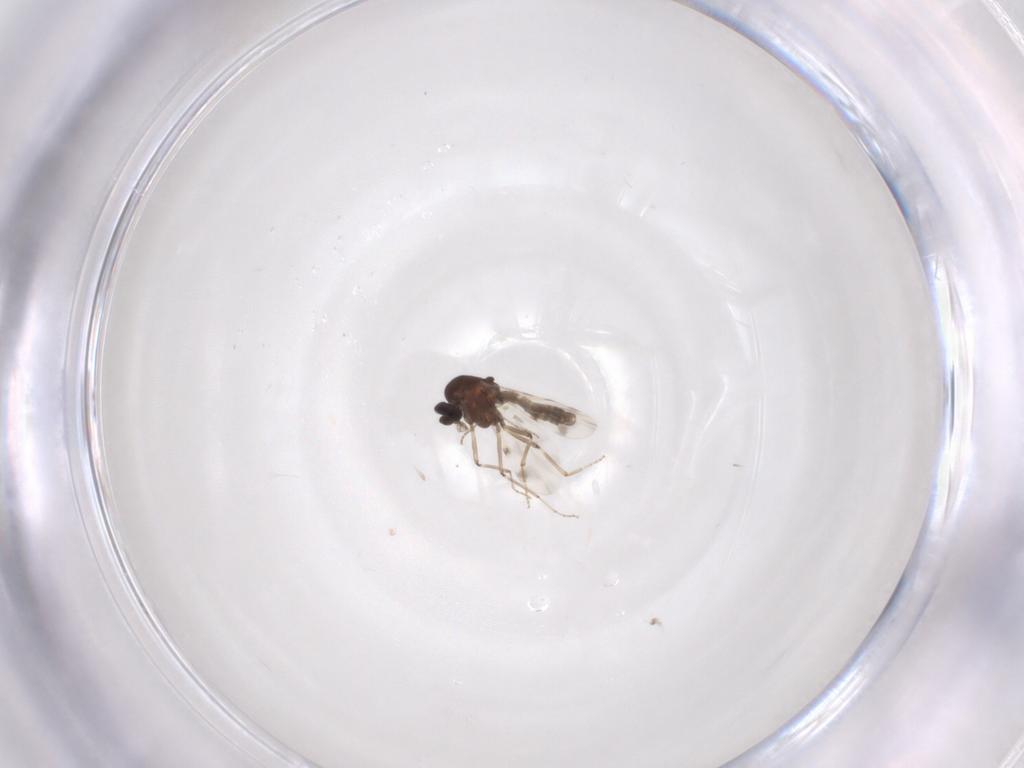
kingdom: Animalia
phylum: Arthropoda
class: Insecta
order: Diptera
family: Ceratopogonidae
